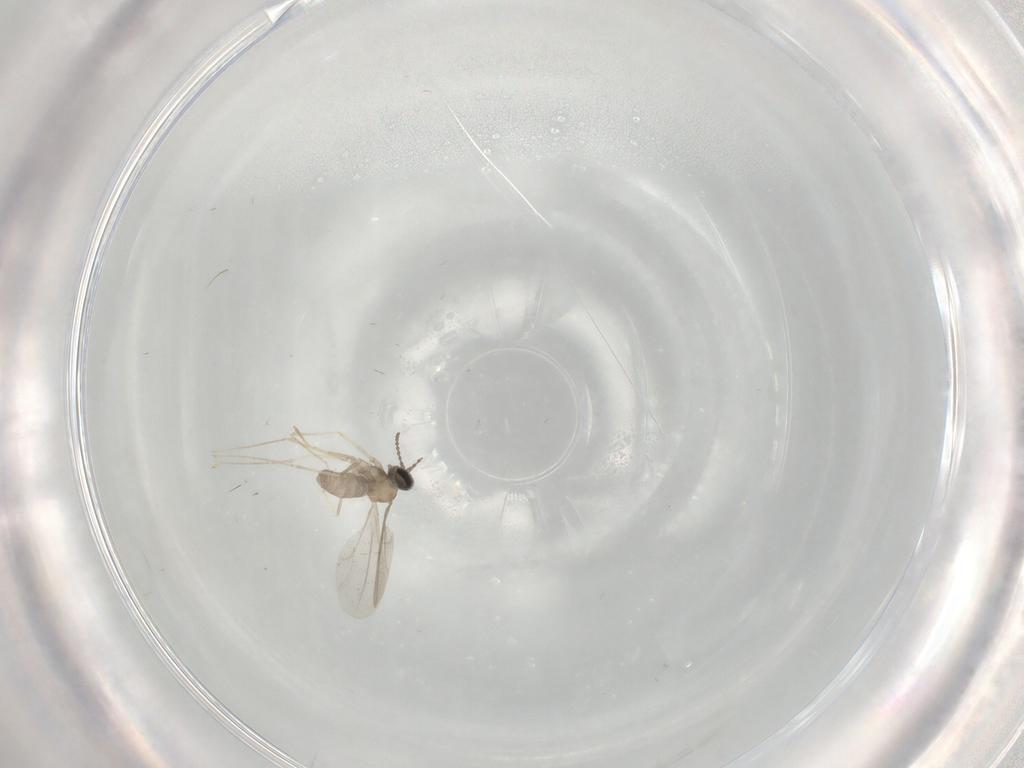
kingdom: Animalia
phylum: Arthropoda
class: Insecta
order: Diptera
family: Cecidomyiidae
